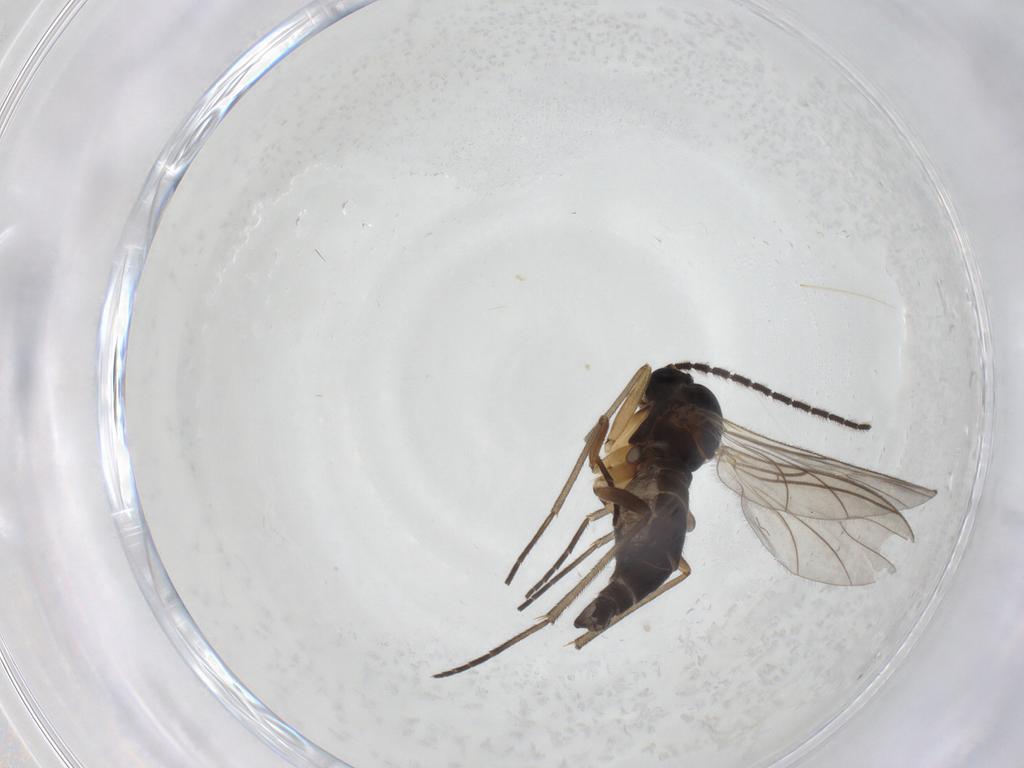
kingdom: Animalia
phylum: Arthropoda
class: Insecta
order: Diptera
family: Sciaridae
